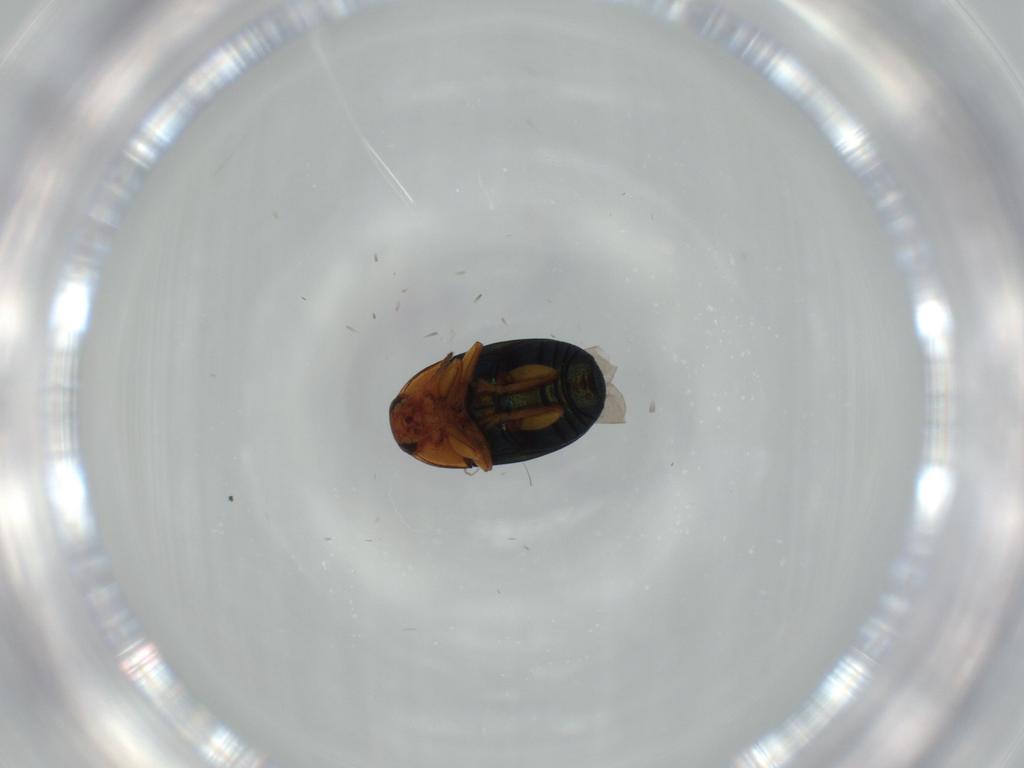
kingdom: Animalia
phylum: Arthropoda
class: Insecta
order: Coleoptera
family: Chrysomelidae
